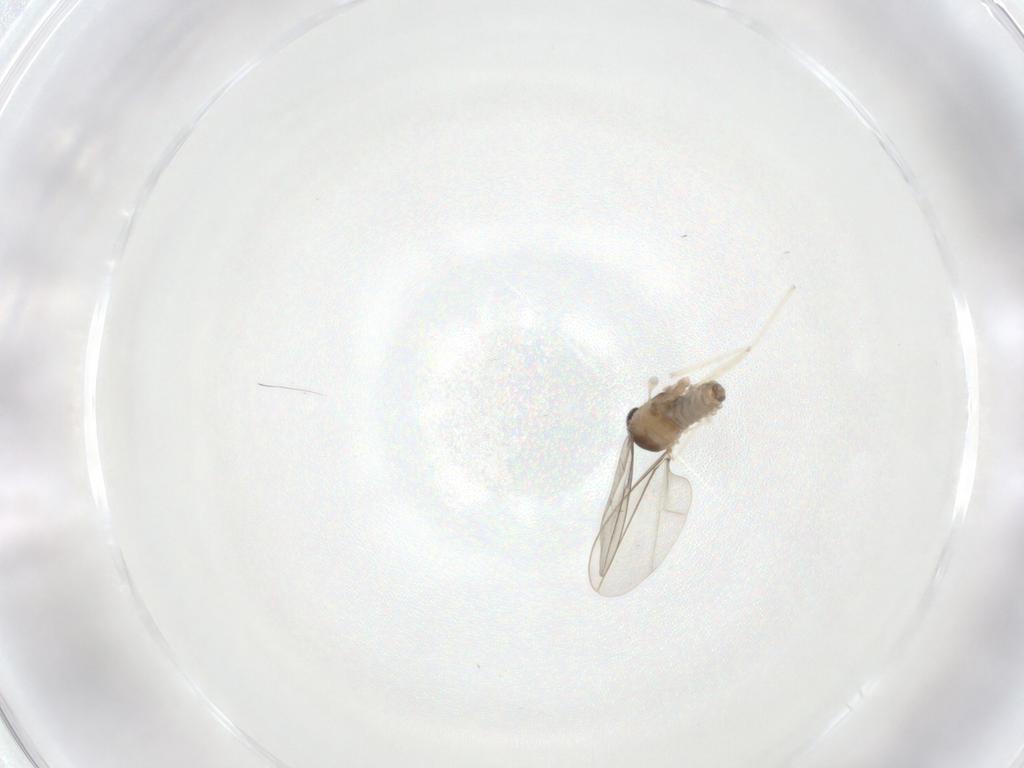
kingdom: Animalia
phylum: Arthropoda
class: Insecta
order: Diptera
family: Cecidomyiidae
